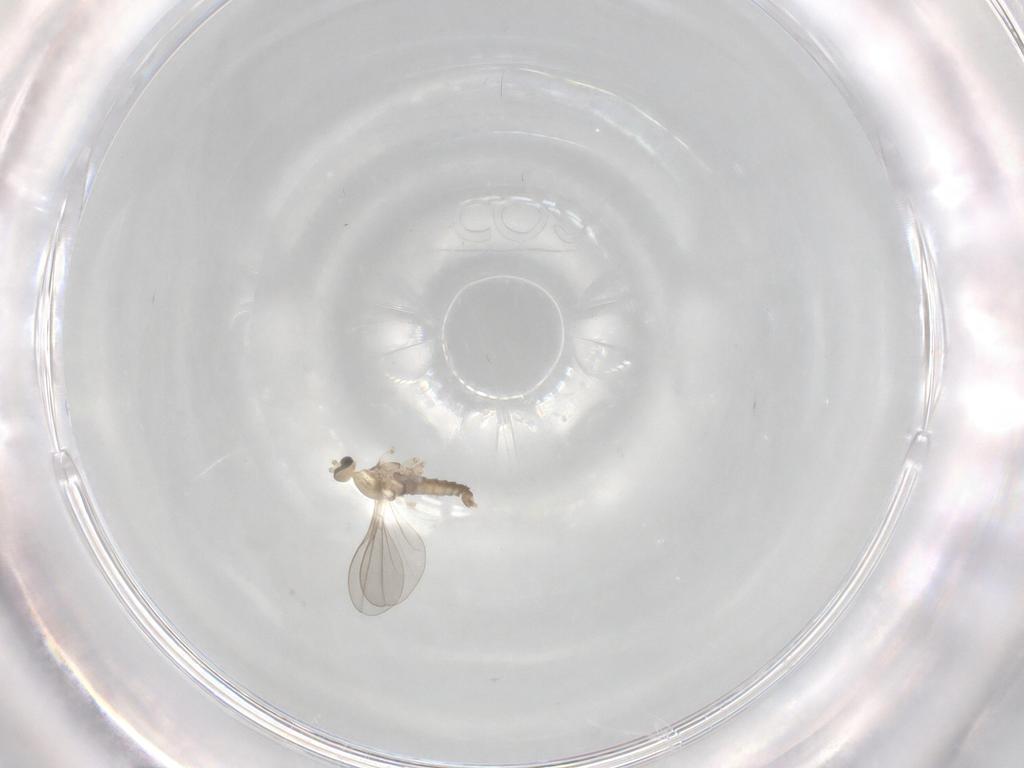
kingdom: Animalia
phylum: Arthropoda
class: Insecta
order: Diptera
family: Cecidomyiidae
